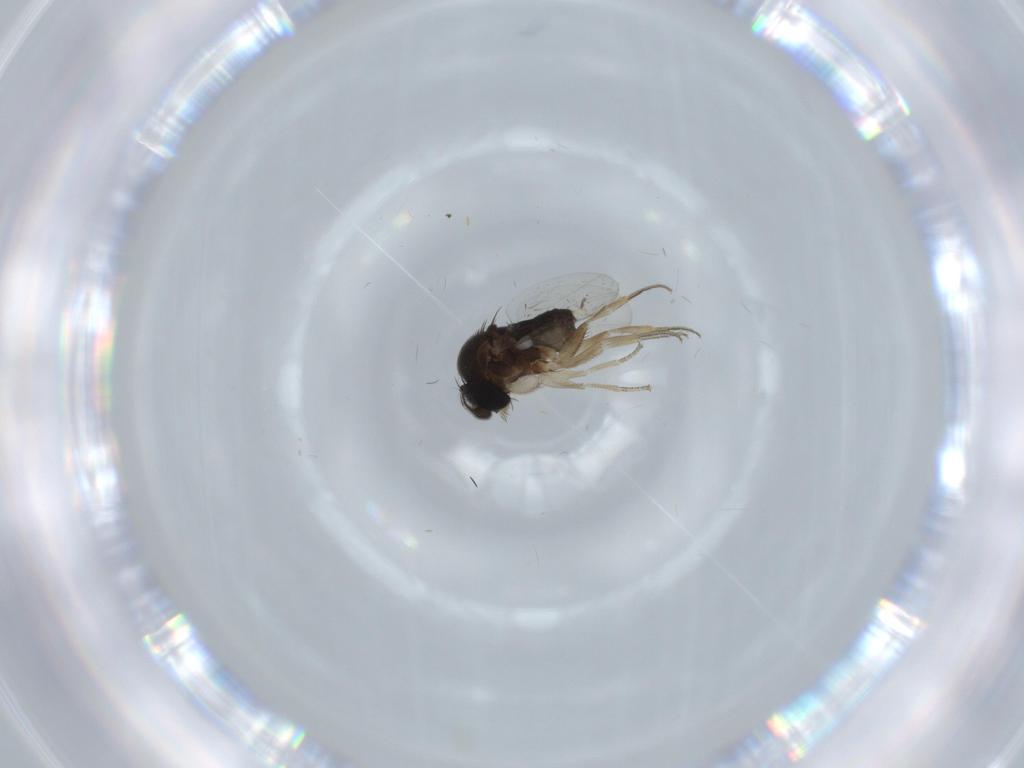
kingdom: Animalia
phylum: Arthropoda
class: Insecta
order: Diptera
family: Phoridae
